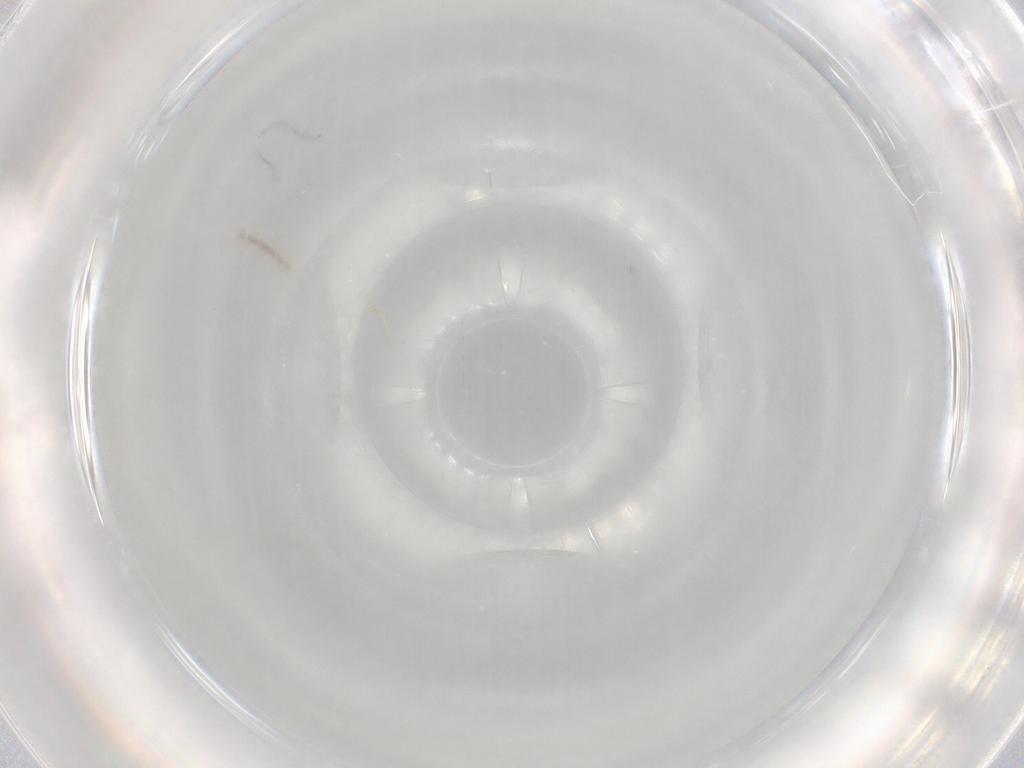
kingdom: Animalia
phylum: Arthropoda
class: Insecta
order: Diptera
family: Cecidomyiidae
